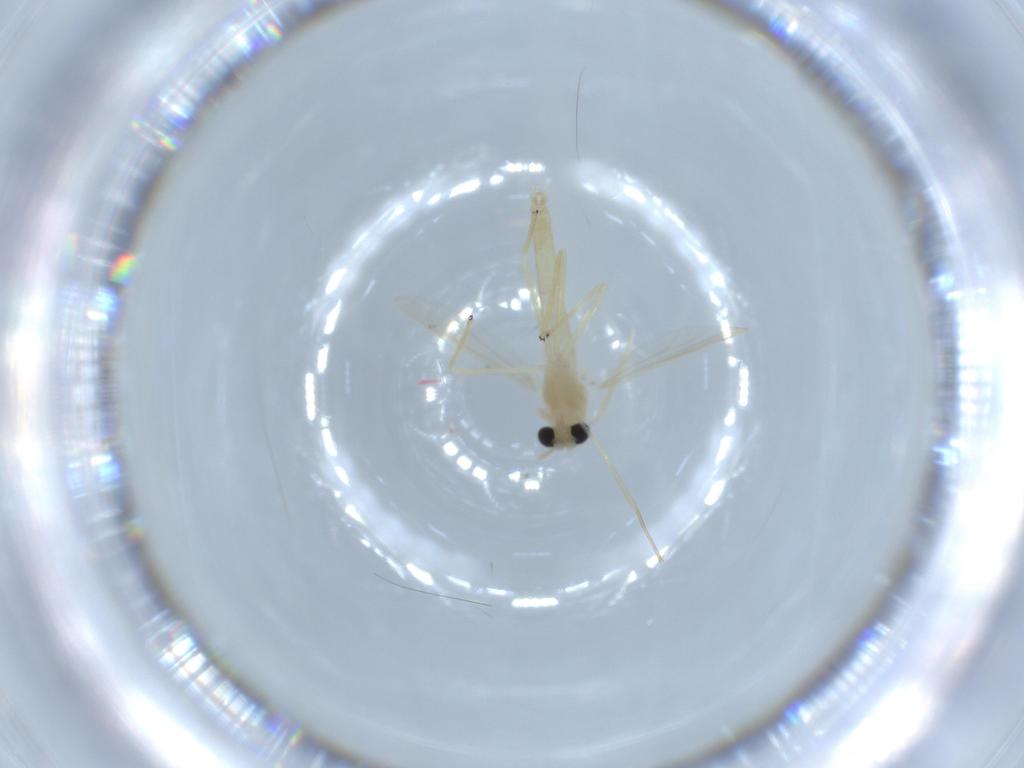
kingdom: Animalia
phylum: Arthropoda
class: Insecta
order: Diptera
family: Chironomidae
